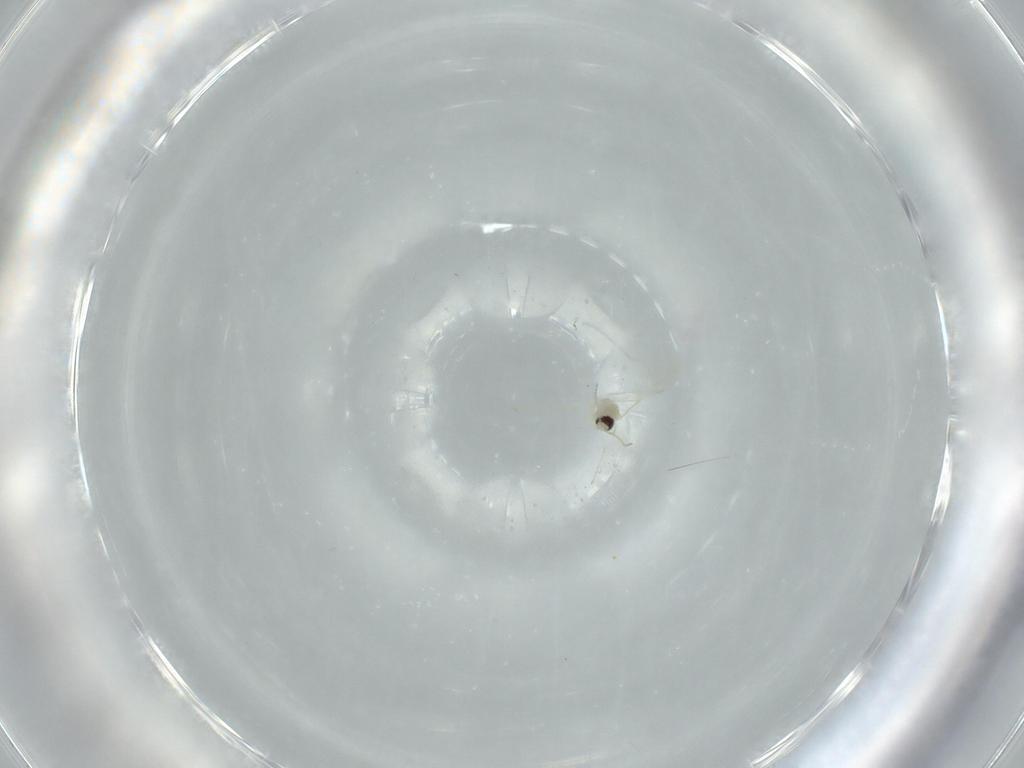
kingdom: Animalia
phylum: Arthropoda
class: Insecta
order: Diptera
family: Cecidomyiidae
